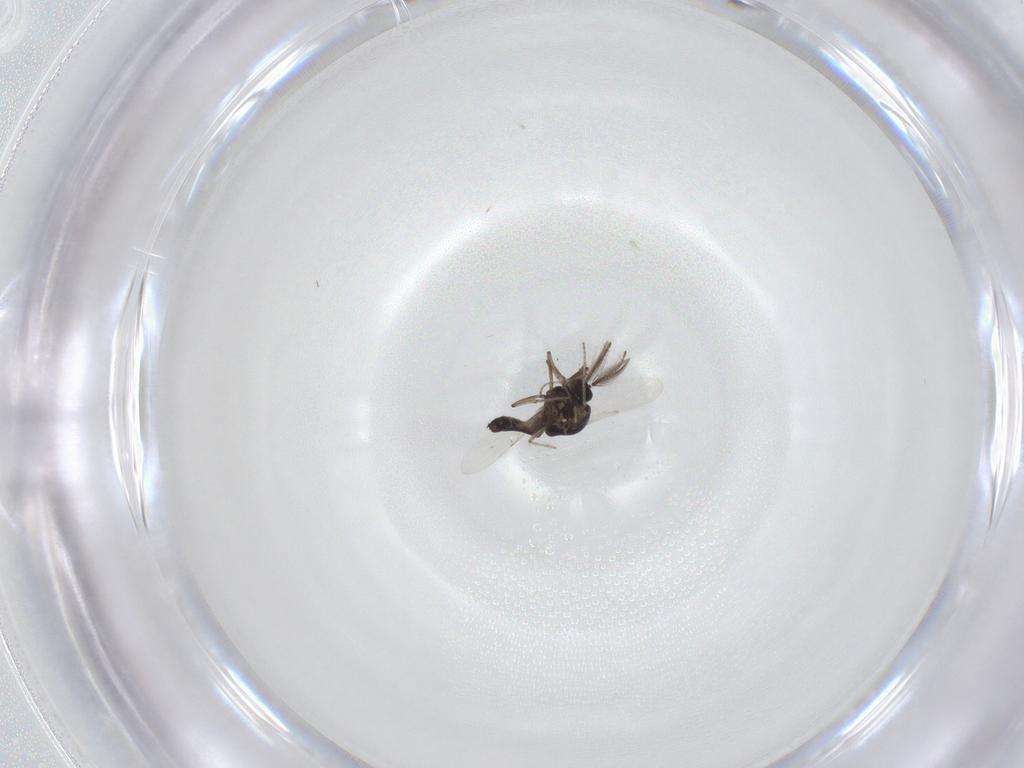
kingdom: Animalia
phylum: Arthropoda
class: Insecta
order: Diptera
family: Ceratopogonidae
